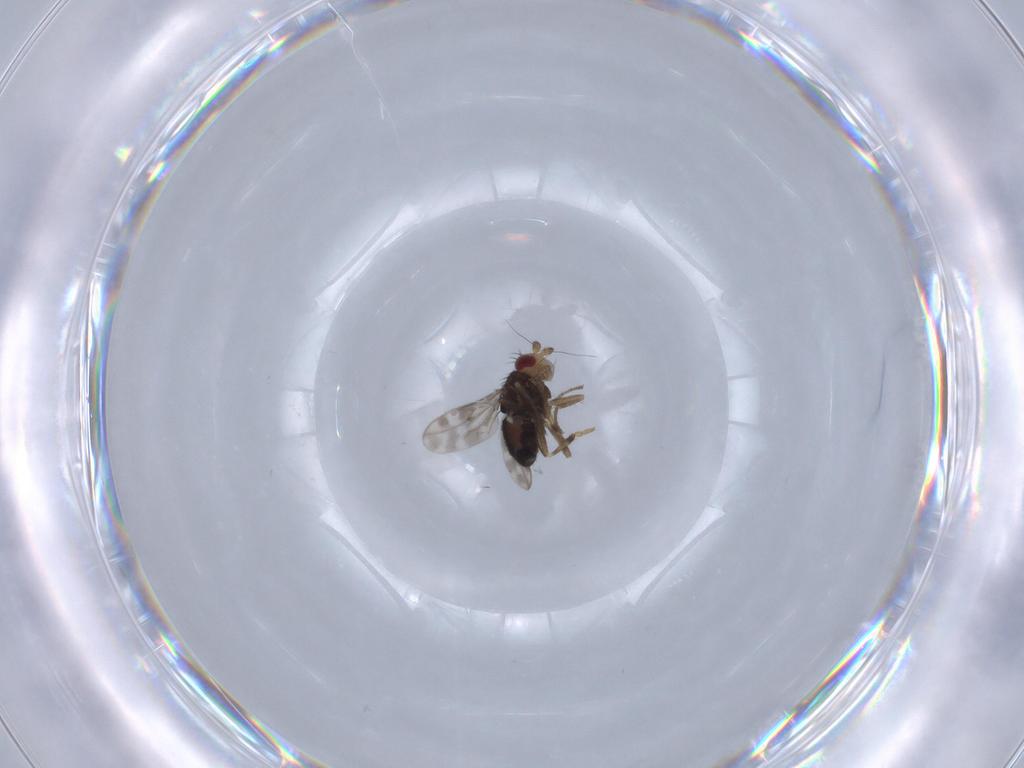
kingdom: Animalia
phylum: Arthropoda
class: Insecta
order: Diptera
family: Sphaeroceridae
